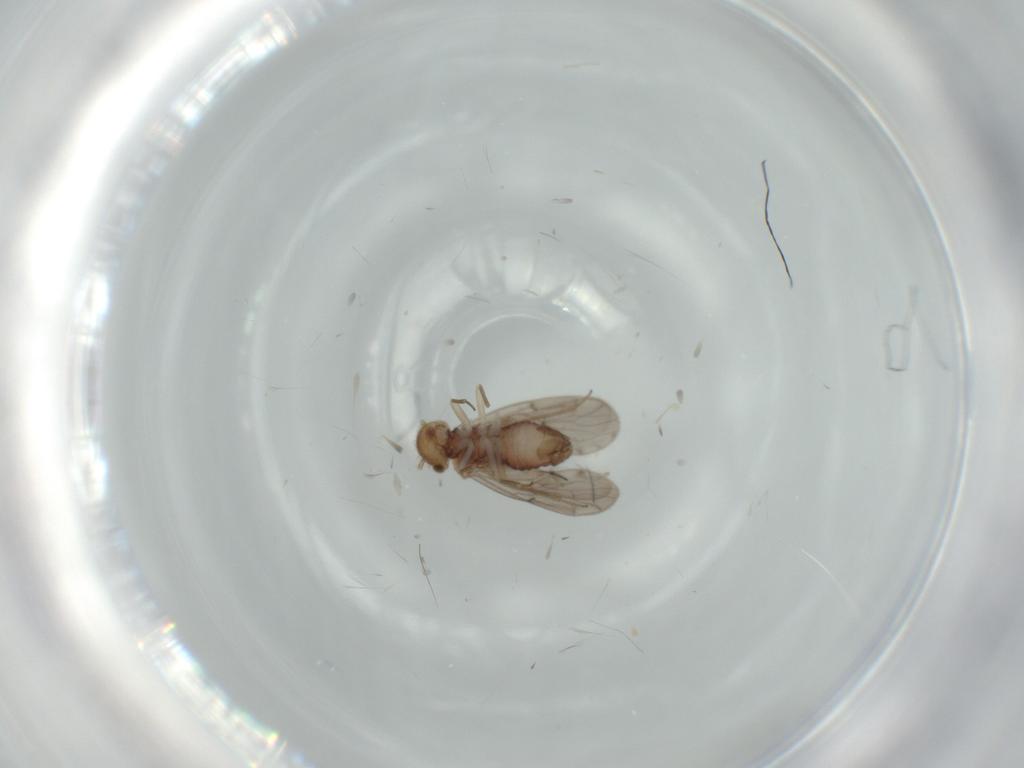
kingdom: Animalia
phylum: Arthropoda
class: Insecta
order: Psocodea
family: Ectopsocidae
